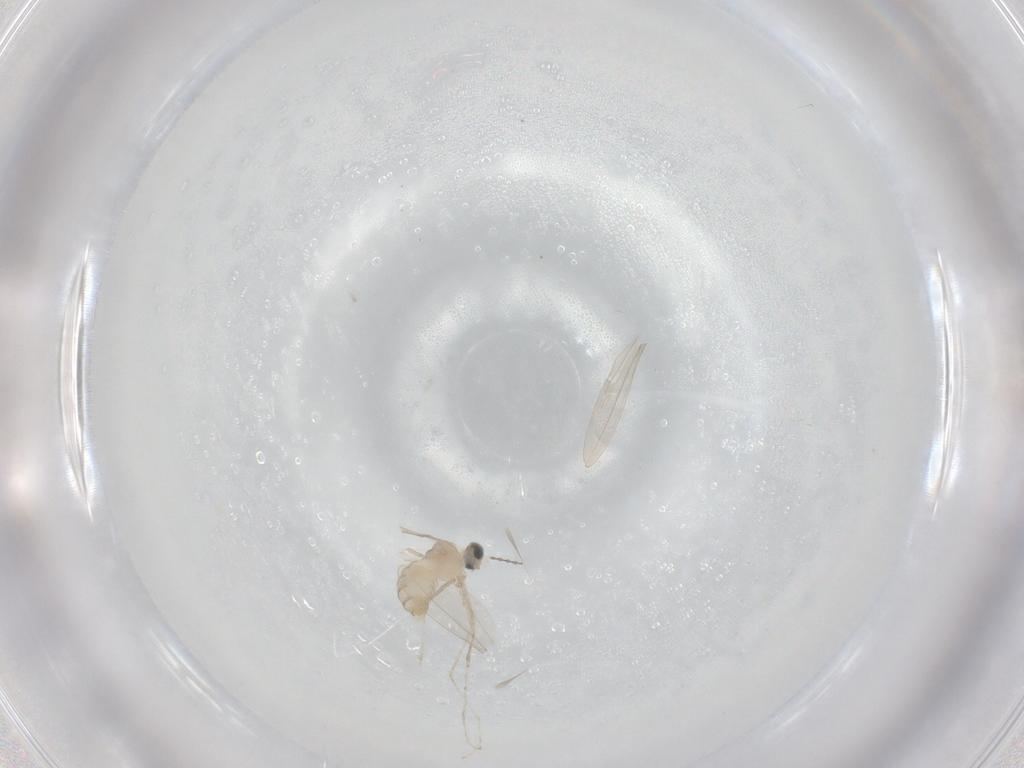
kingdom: Animalia
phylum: Arthropoda
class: Insecta
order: Diptera
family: Cecidomyiidae
